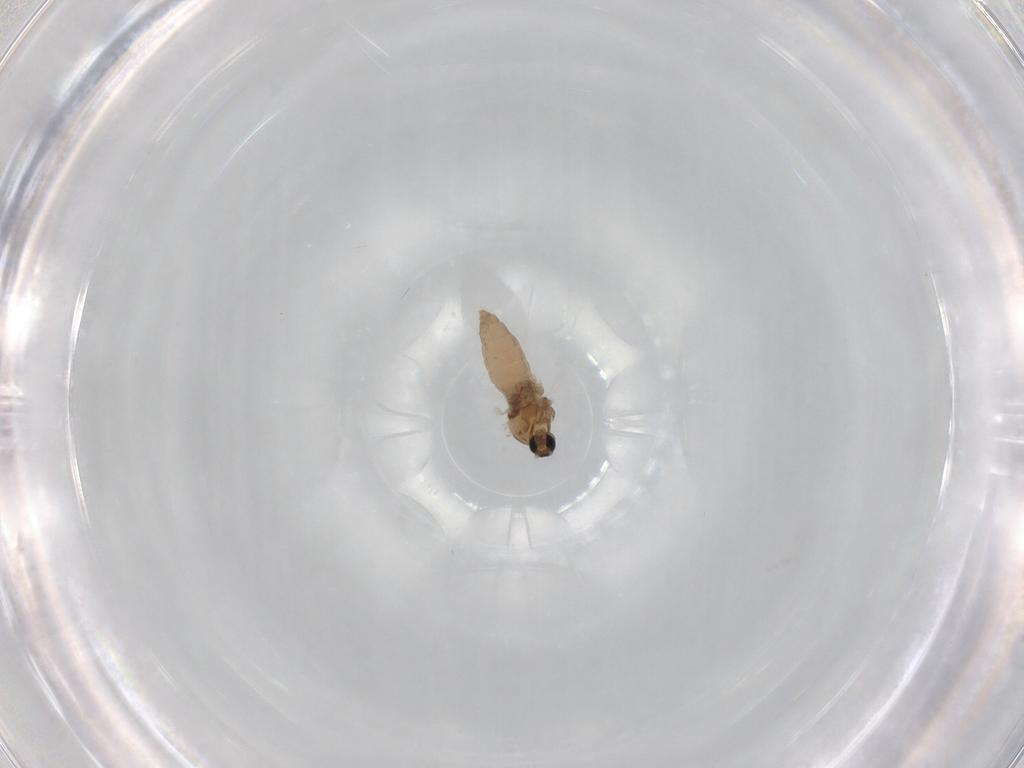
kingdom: Animalia
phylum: Arthropoda
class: Insecta
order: Diptera
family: Cecidomyiidae
